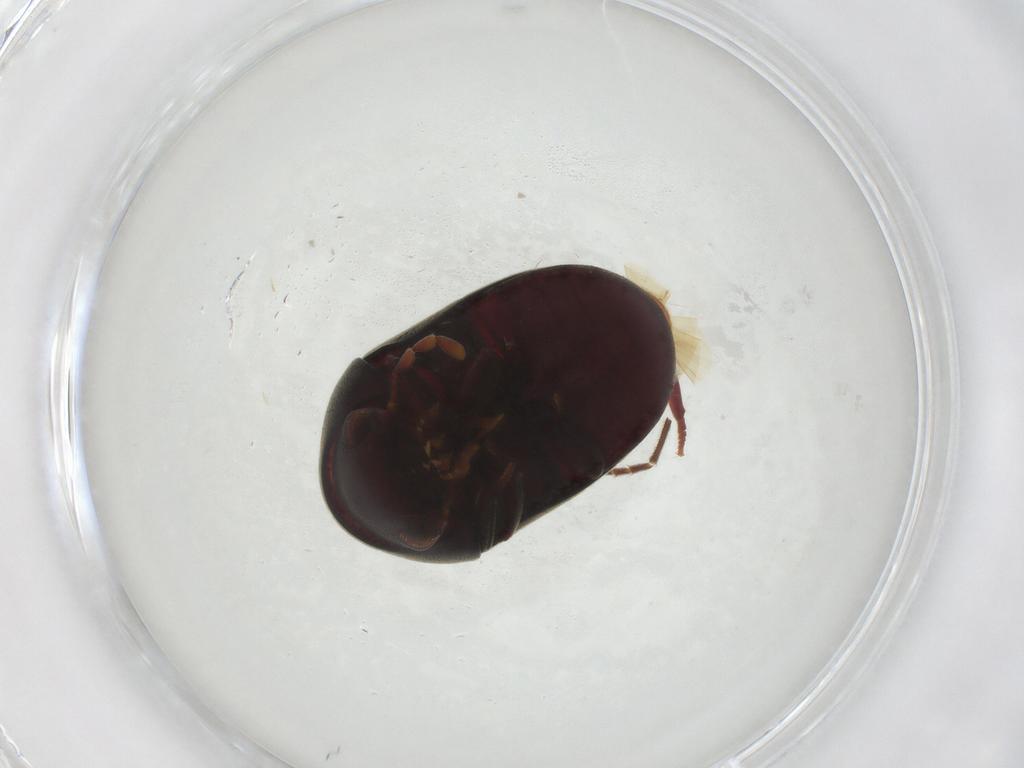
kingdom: Animalia
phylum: Arthropoda
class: Insecta
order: Coleoptera
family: Ptinidae
